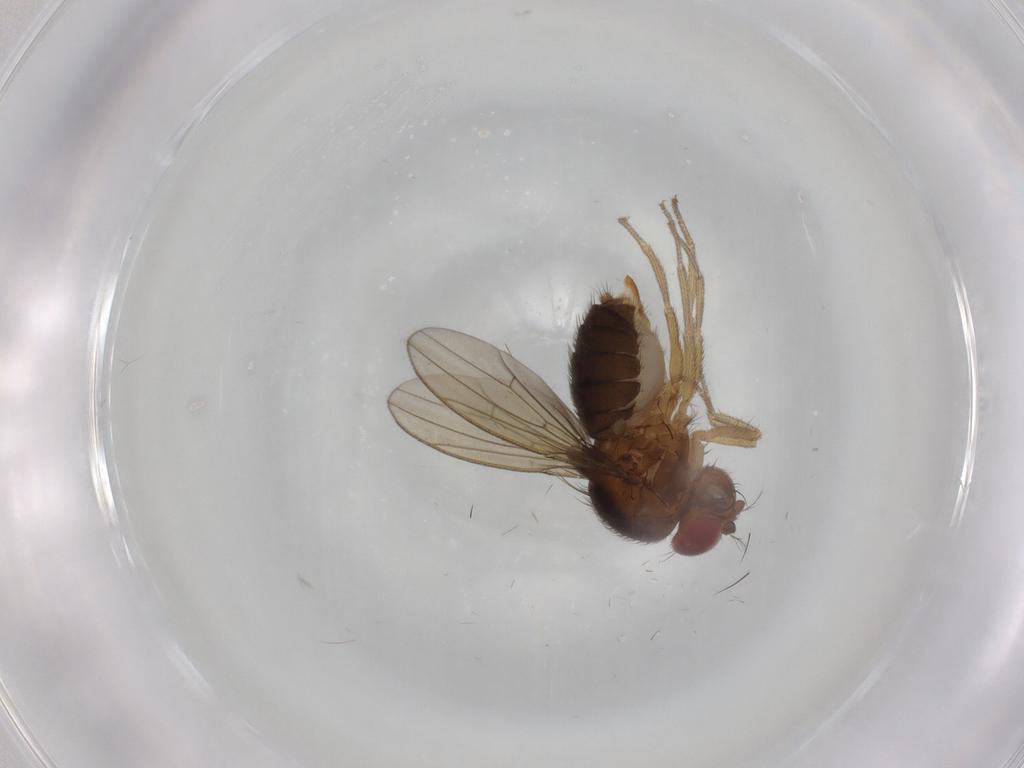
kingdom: Animalia
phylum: Arthropoda
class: Insecta
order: Diptera
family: Drosophilidae
